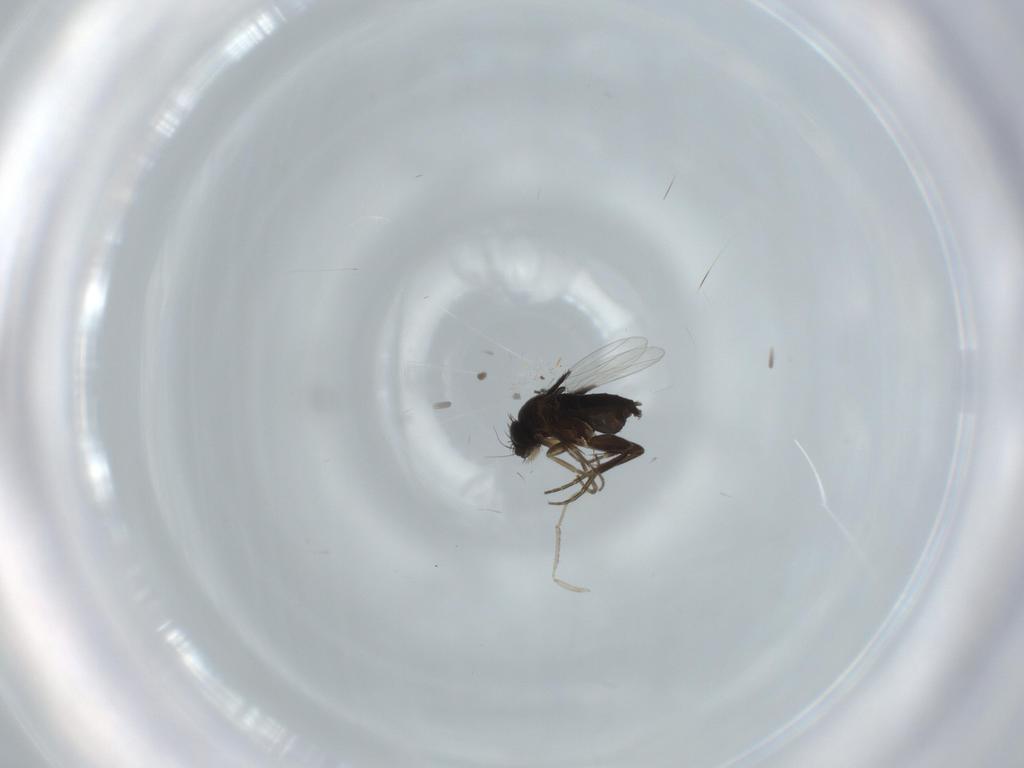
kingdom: Animalia
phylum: Arthropoda
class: Insecta
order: Diptera
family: Phoridae
